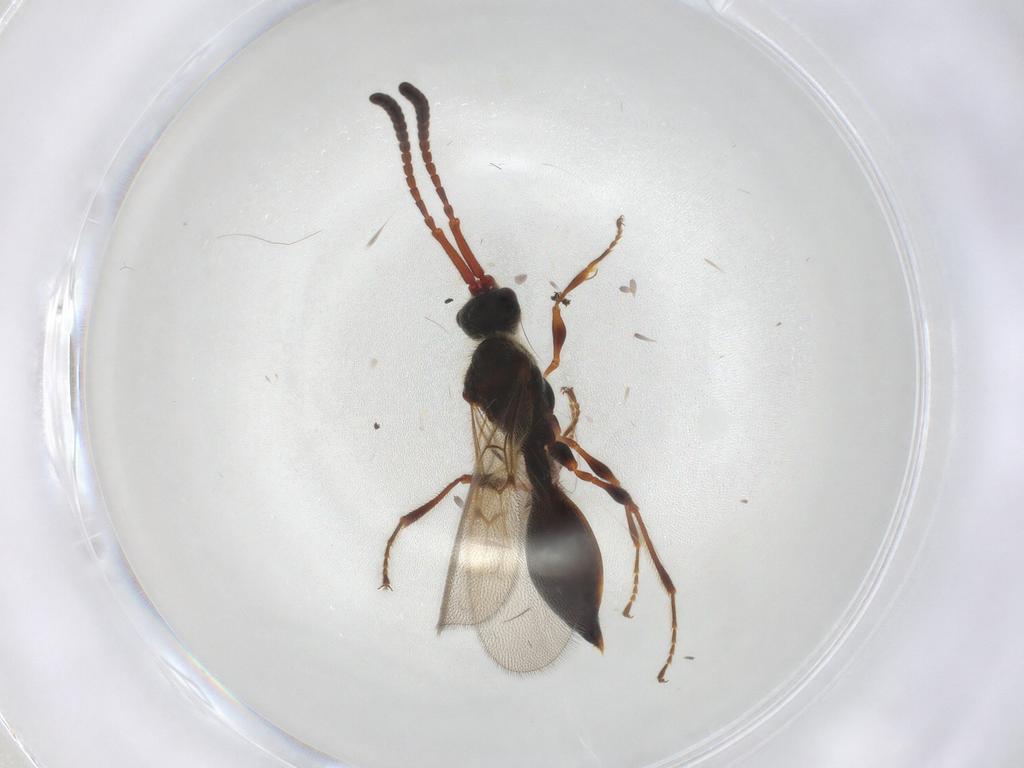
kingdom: Animalia
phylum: Arthropoda
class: Insecta
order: Hymenoptera
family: Diapriidae
